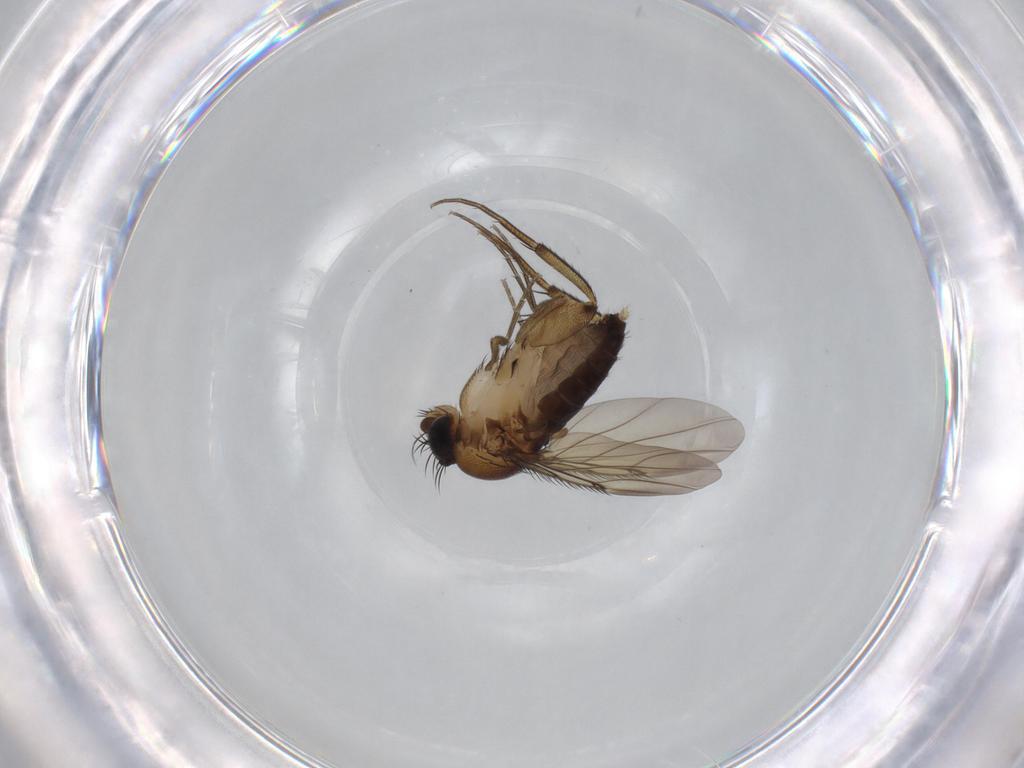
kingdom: Animalia
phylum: Arthropoda
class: Insecta
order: Diptera
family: Phoridae
